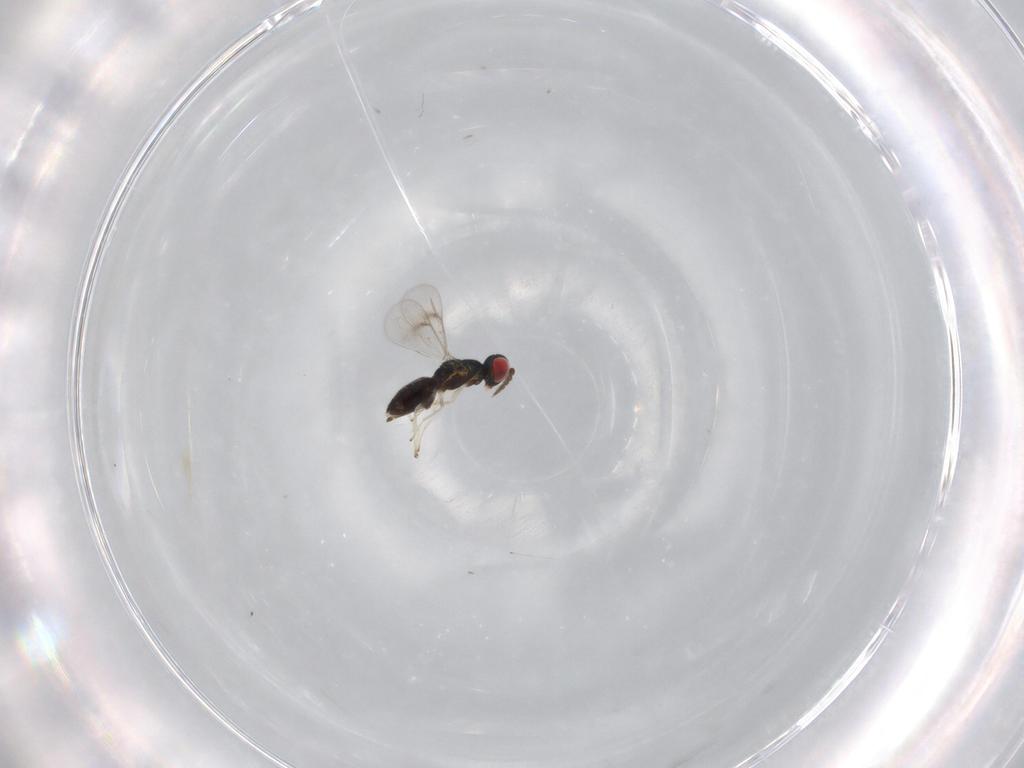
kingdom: Animalia
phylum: Arthropoda
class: Insecta
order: Hymenoptera
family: Eulophidae
